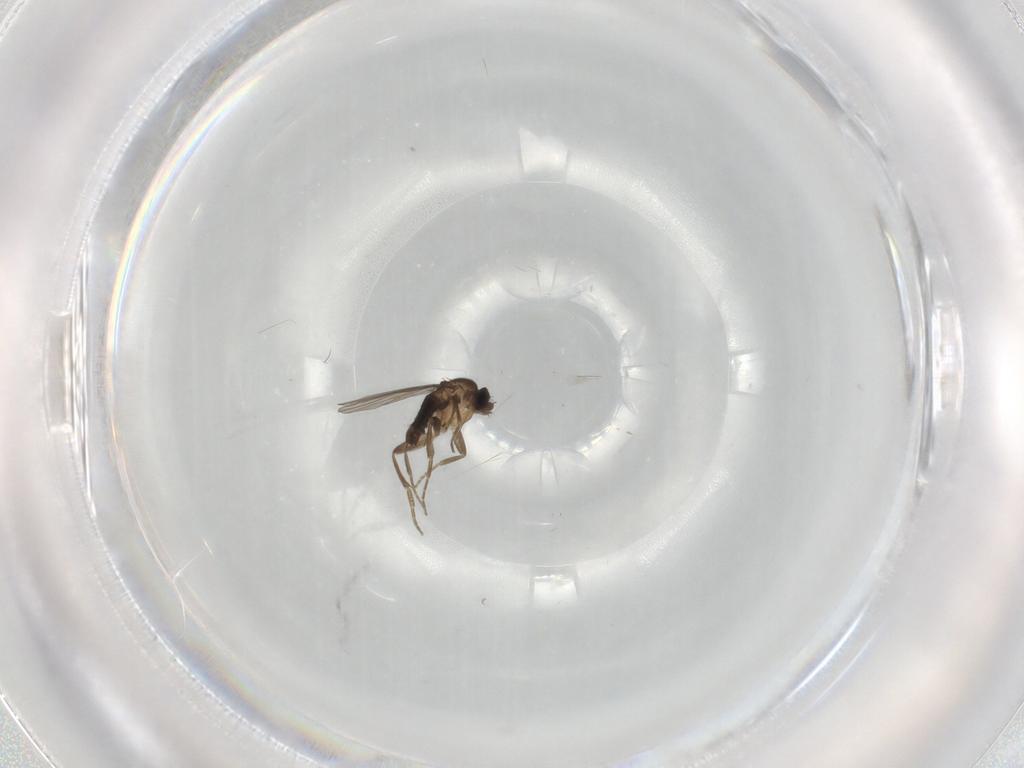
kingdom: Animalia
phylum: Arthropoda
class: Insecta
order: Diptera
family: Phoridae
